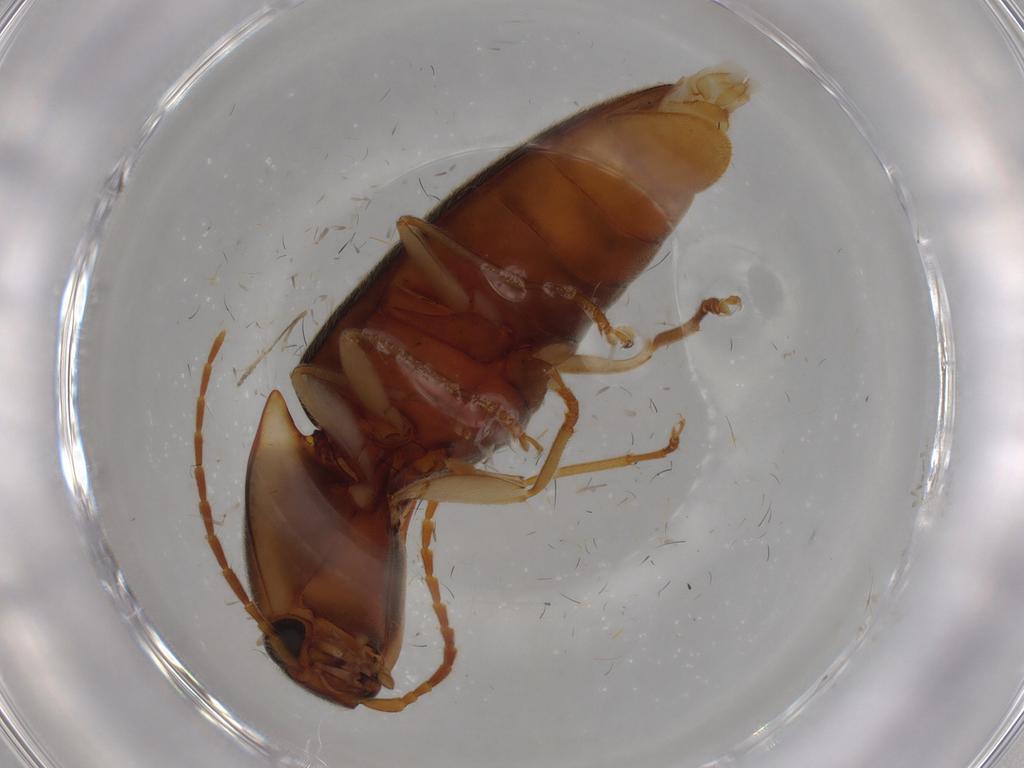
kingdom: Animalia
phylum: Arthropoda
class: Insecta
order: Coleoptera
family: Elateridae
